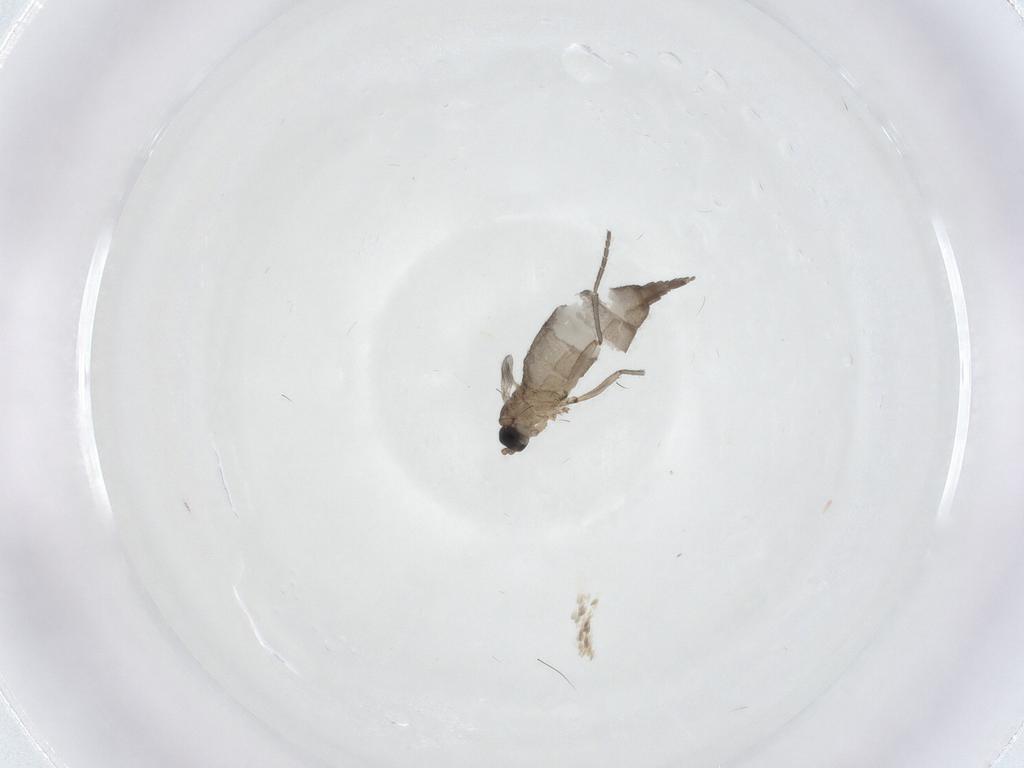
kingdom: Animalia
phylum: Arthropoda
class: Insecta
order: Diptera
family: Sciaridae
